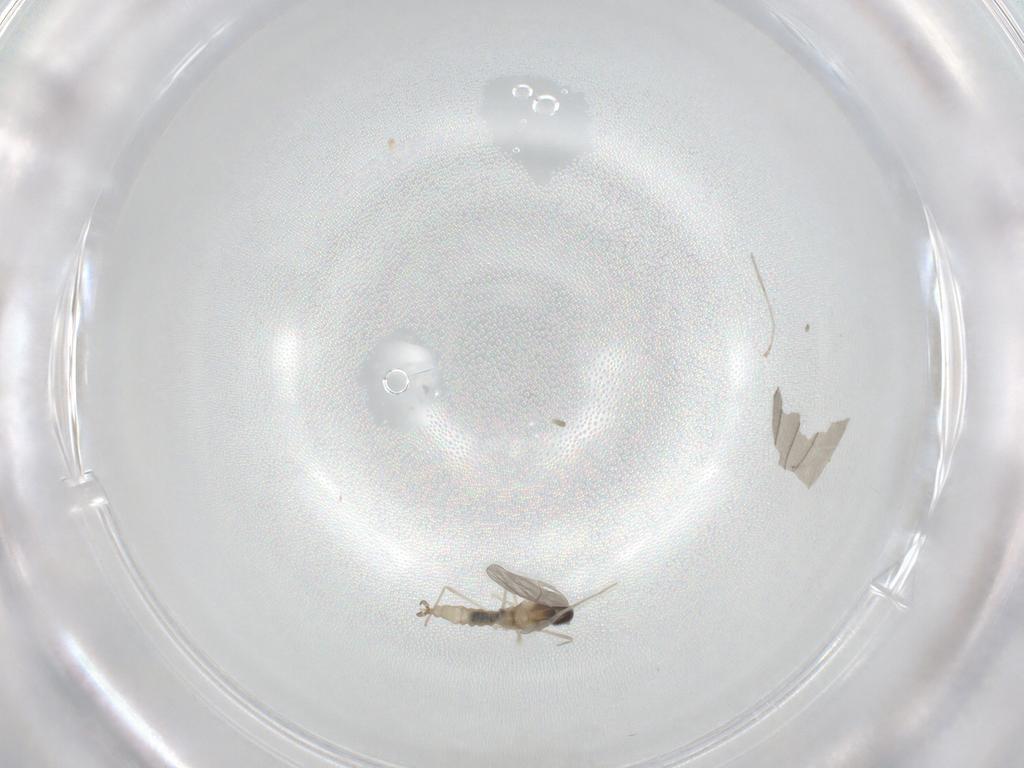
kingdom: Animalia
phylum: Arthropoda
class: Insecta
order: Diptera
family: Cecidomyiidae
